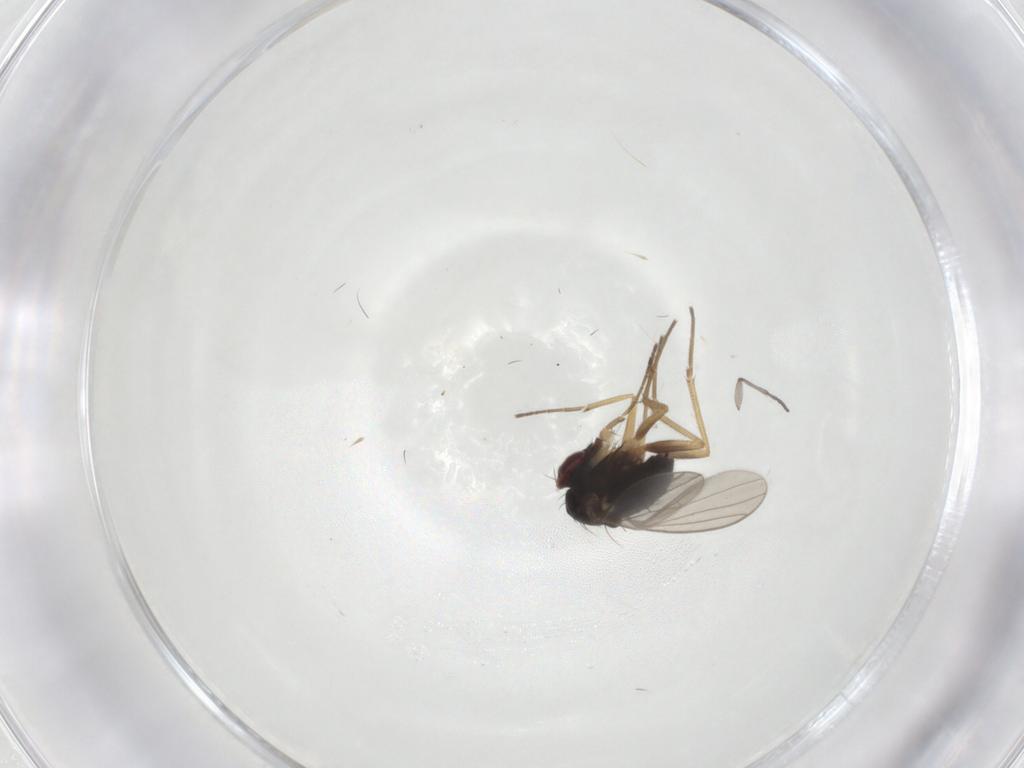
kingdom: Animalia
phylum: Arthropoda
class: Insecta
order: Diptera
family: Dolichopodidae
